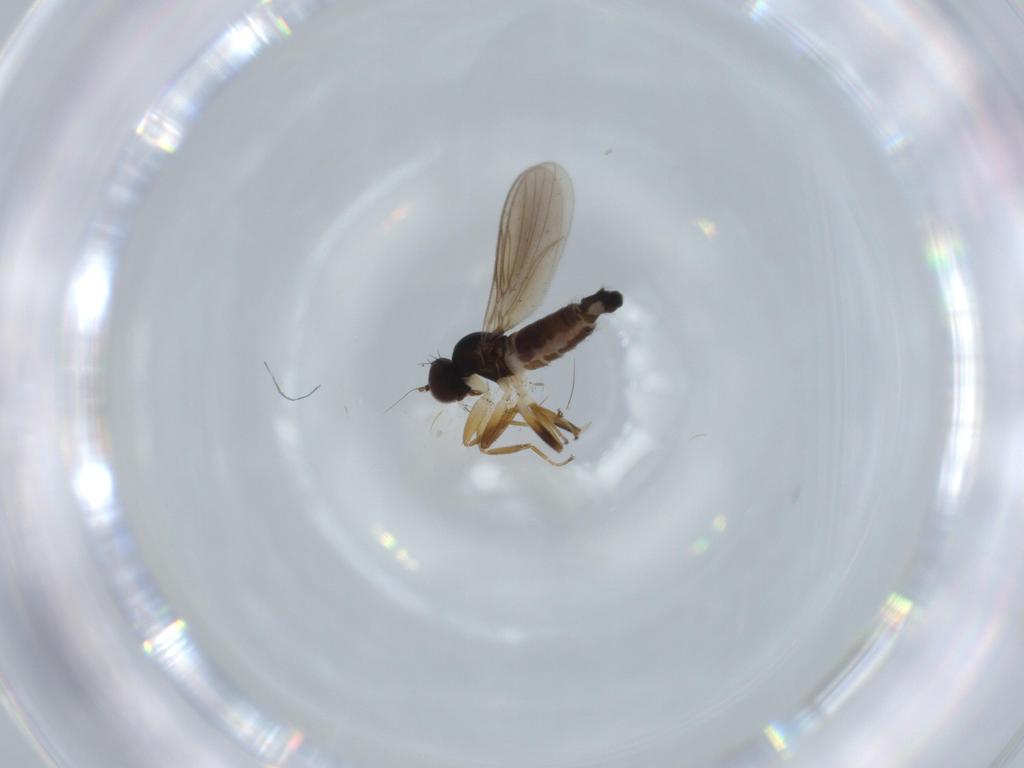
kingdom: Animalia
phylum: Arthropoda
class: Insecta
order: Diptera
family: Hybotidae
